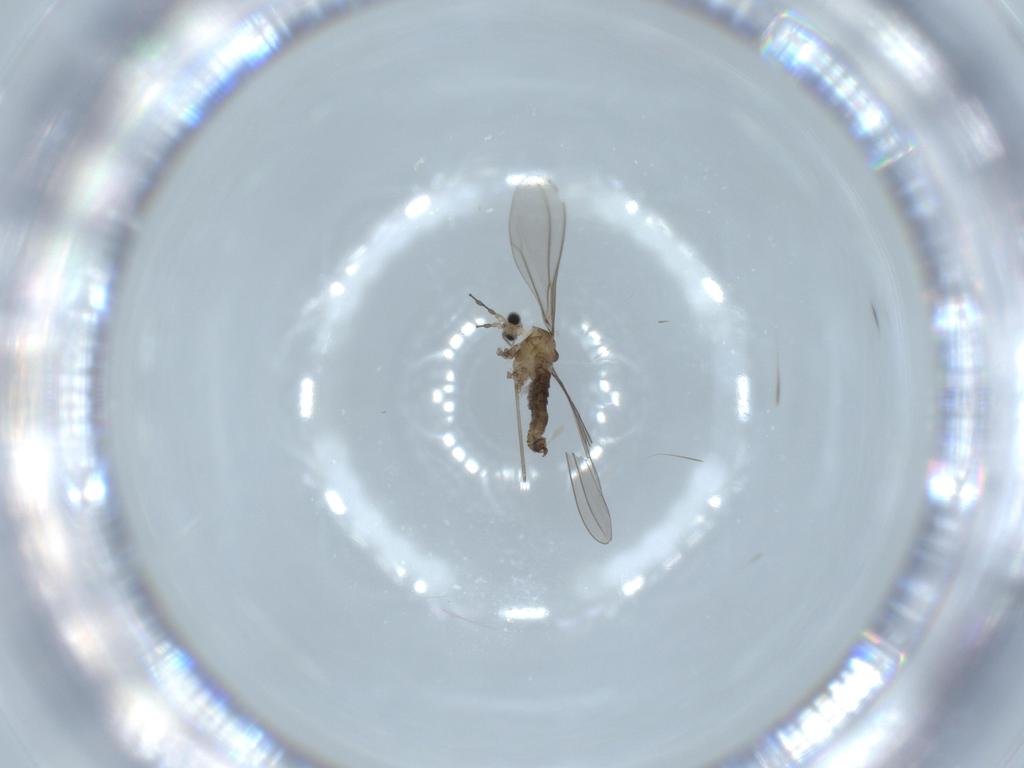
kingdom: Animalia
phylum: Arthropoda
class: Insecta
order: Diptera
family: Cecidomyiidae
